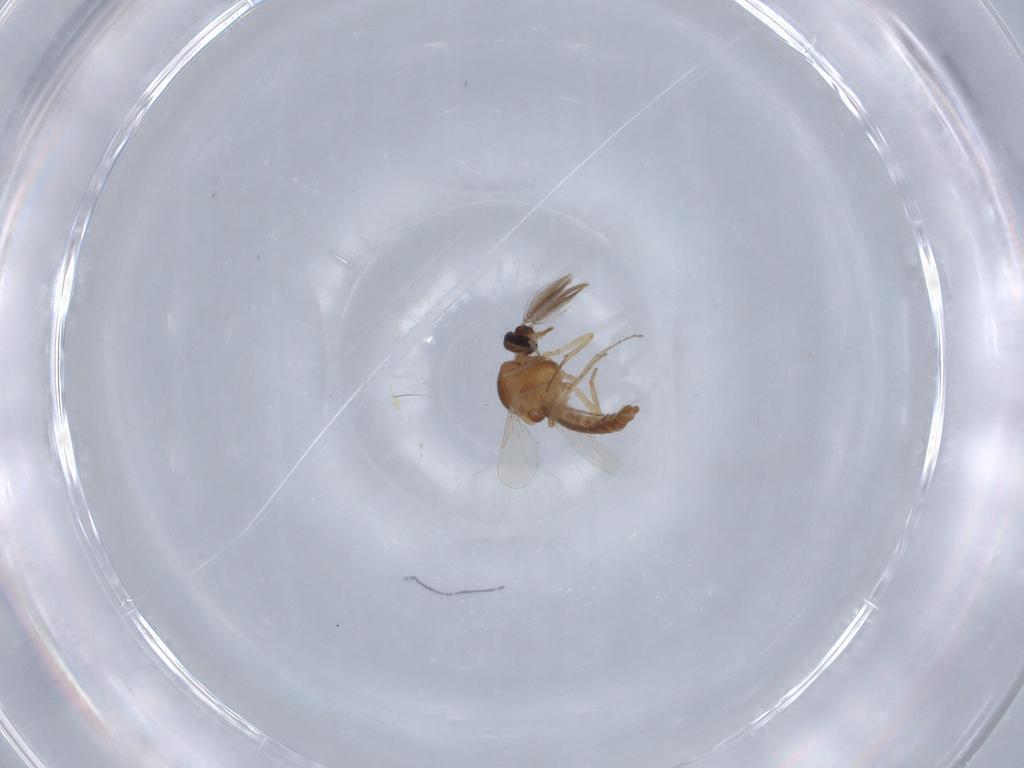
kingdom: Animalia
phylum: Arthropoda
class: Insecta
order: Diptera
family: Ceratopogonidae
